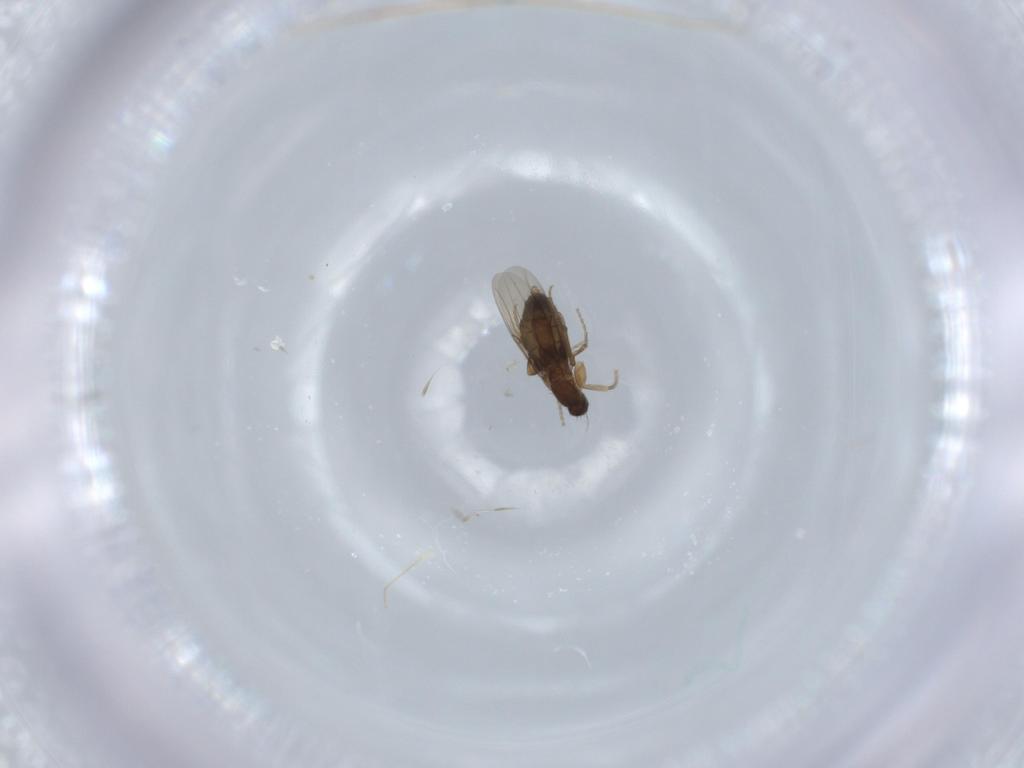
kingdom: Animalia
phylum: Arthropoda
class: Insecta
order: Diptera
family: Phoridae
